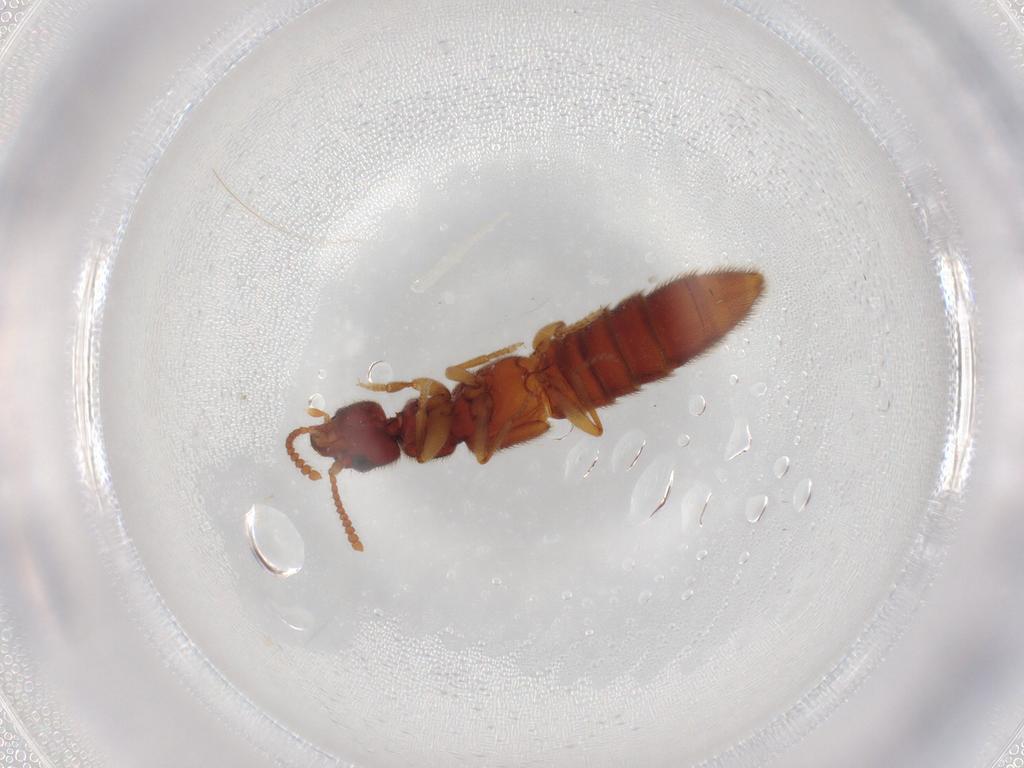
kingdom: Animalia
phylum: Arthropoda
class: Insecta
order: Coleoptera
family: Staphylinidae
